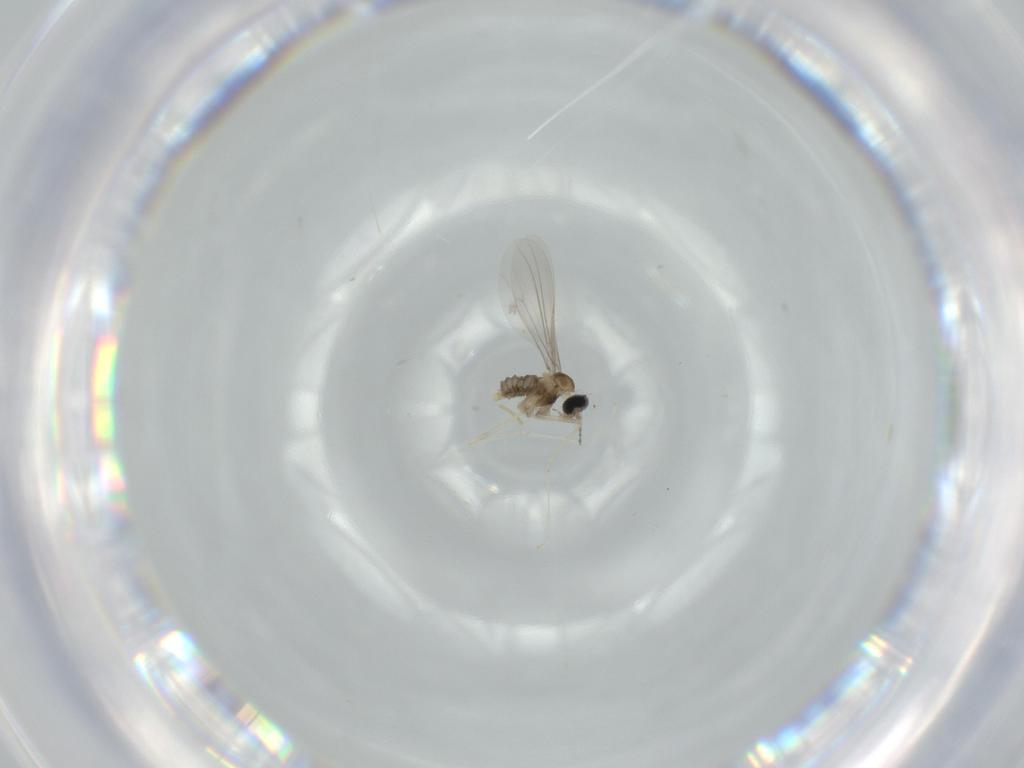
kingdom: Animalia
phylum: Arthropoda
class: Insecta
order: Diptera
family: Cecidomyiidae
